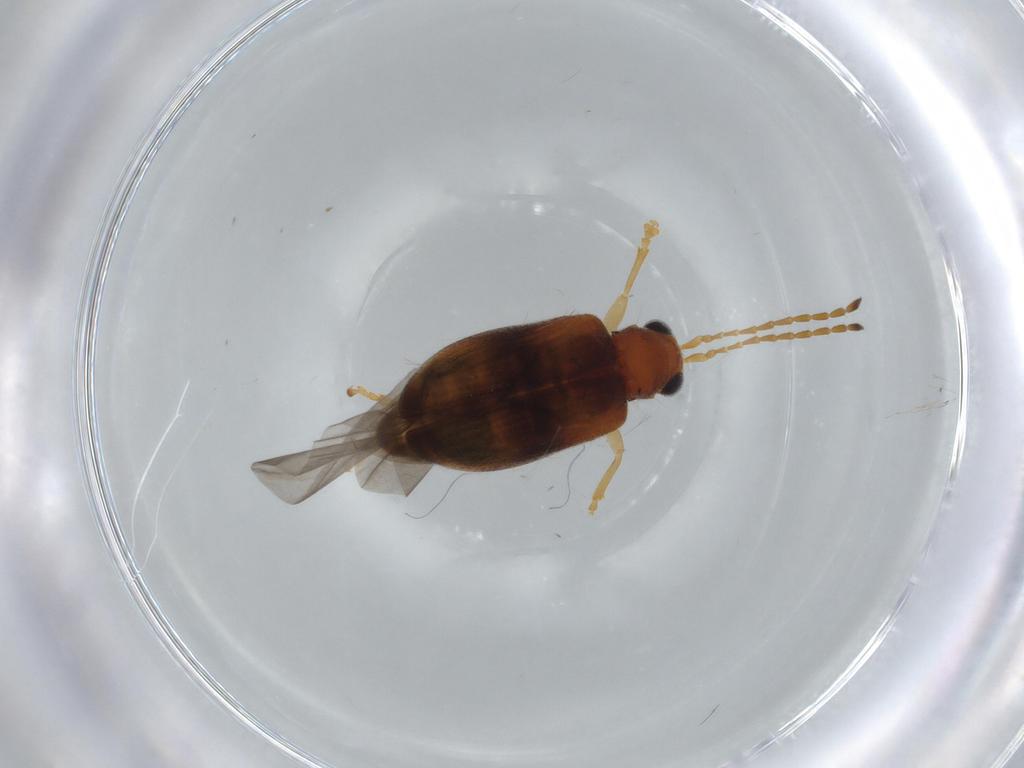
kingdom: Animalia
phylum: Arthropoda
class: Insecta
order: Coleoptera
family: Chrysomelidae
